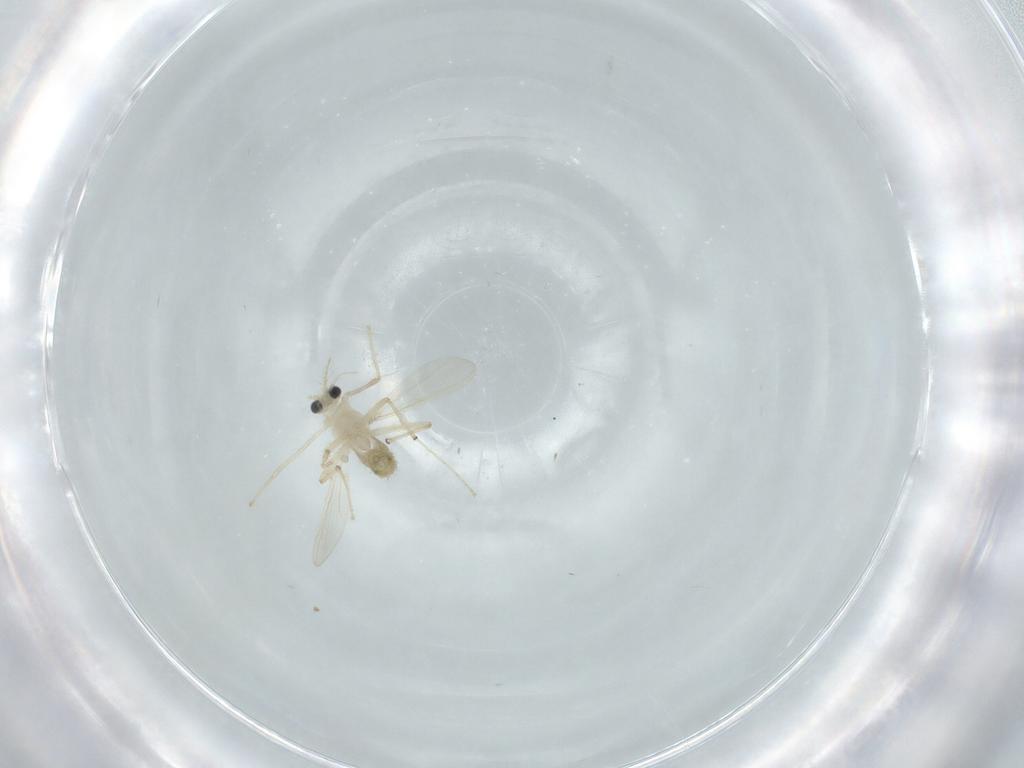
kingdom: Animalia
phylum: Arthropoda
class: Insecta
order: Diptera
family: Chironomidae
